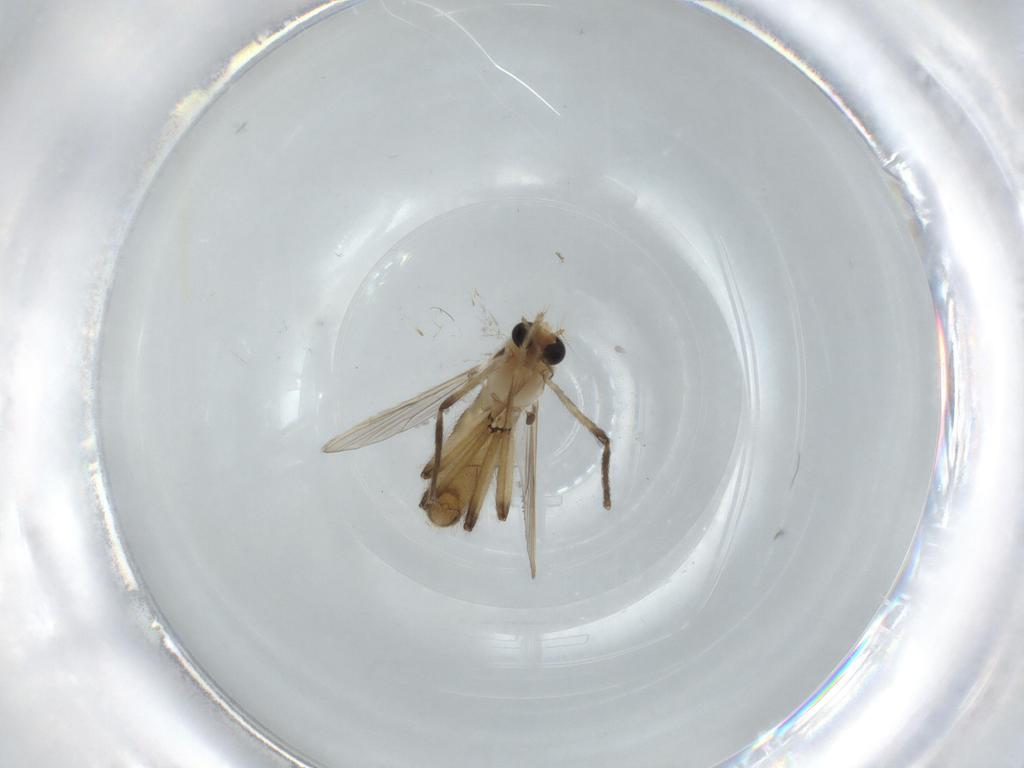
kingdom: Animalia
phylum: Arthropoda
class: Insecta
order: Diptera
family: Chironomidae
